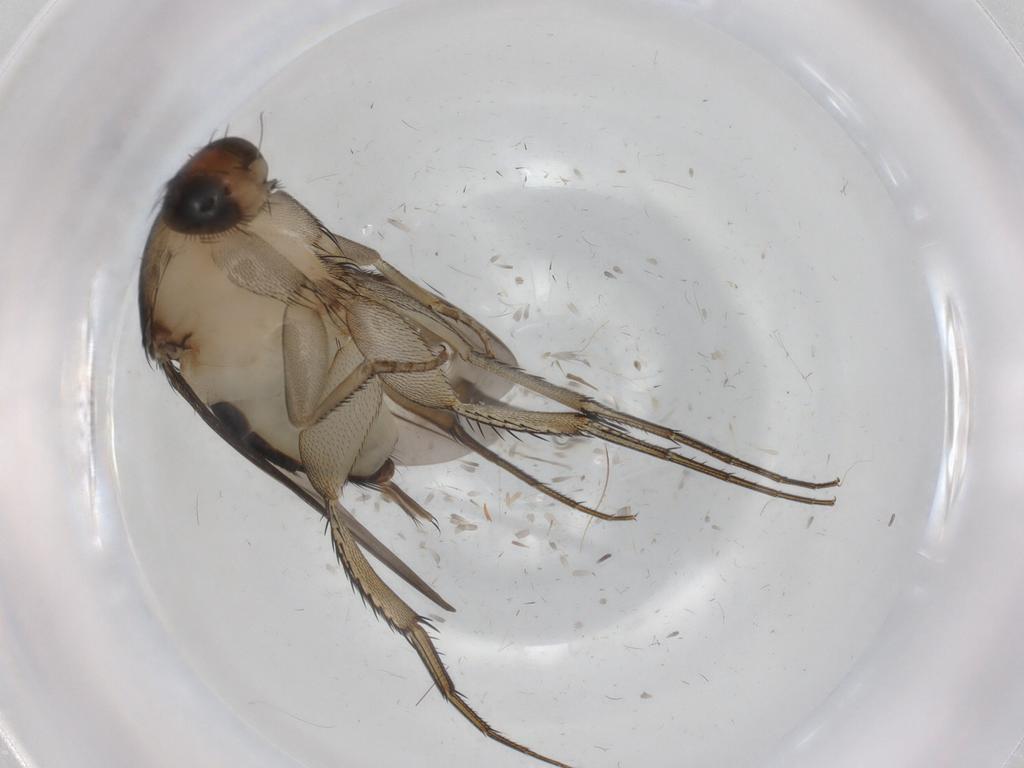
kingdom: Animalia
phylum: Arthropoda
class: Insecta
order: Diptera
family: Phoridae
